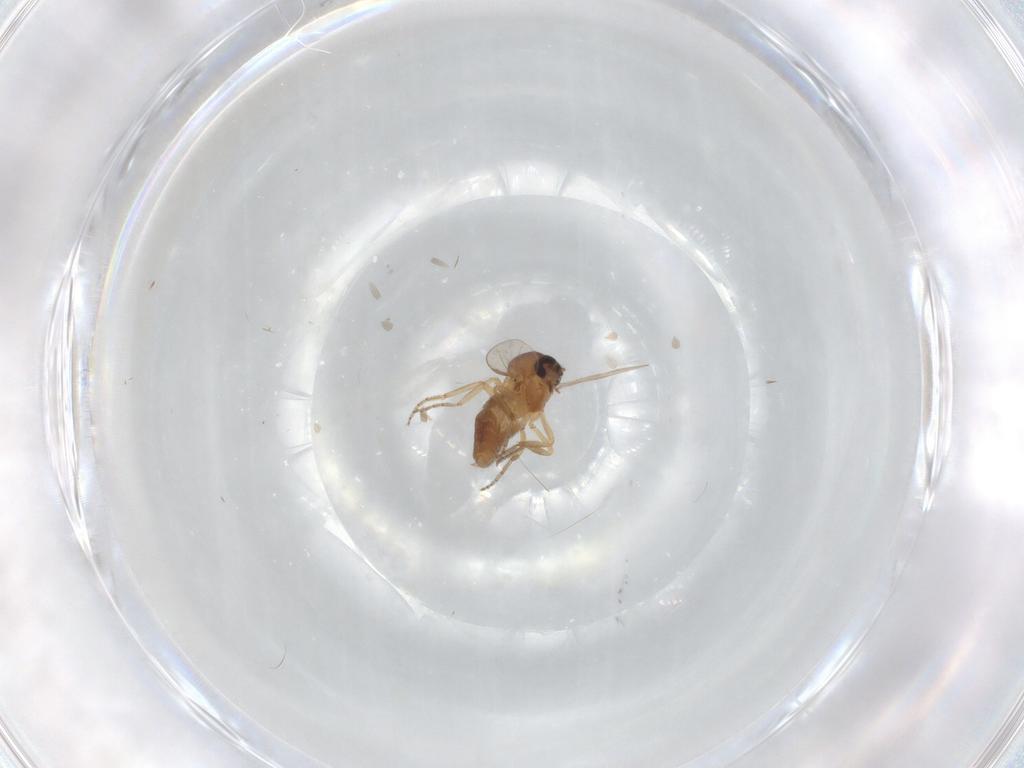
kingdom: Animalia
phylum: Arthropoda
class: Insecta
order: Diptera
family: Ceratopogonidae
